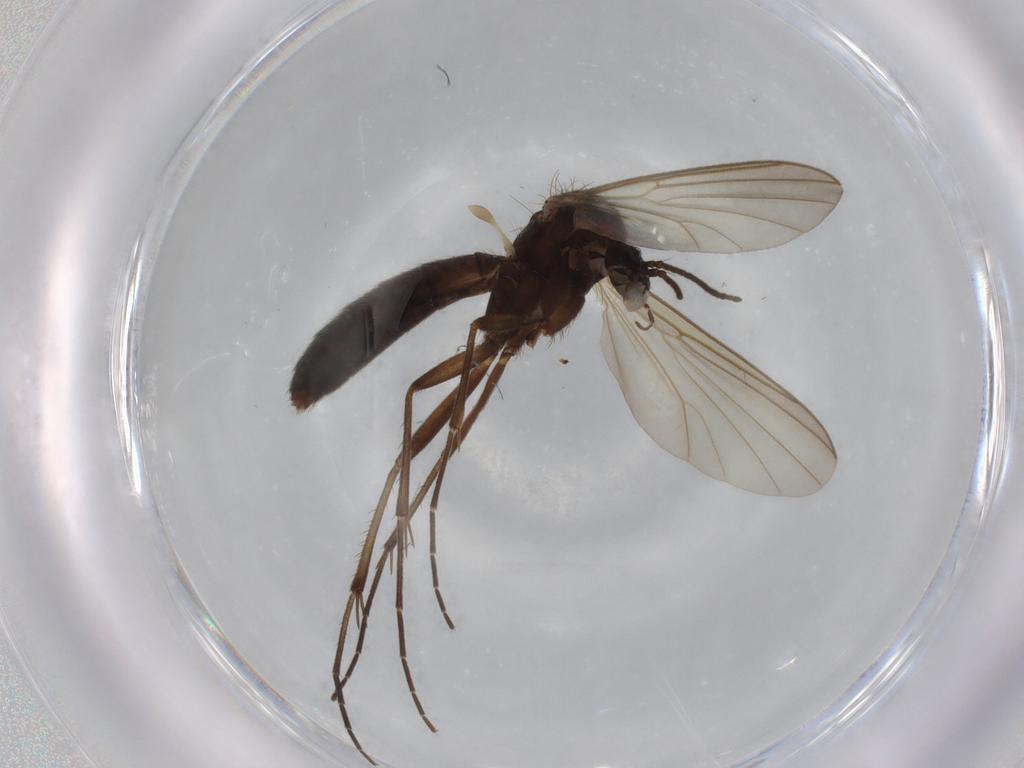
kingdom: Animalia
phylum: Arthropoda
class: Insecta
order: Diptera
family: Mycetophilidae
